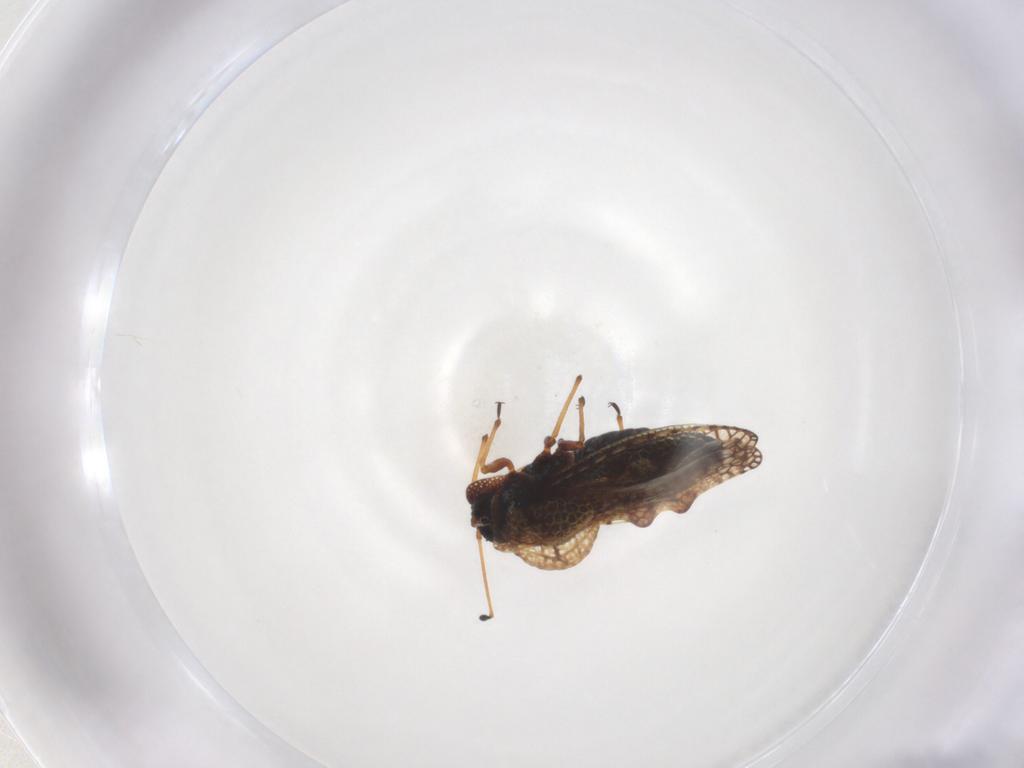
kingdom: Animalia
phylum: Arthropoda
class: Insecta
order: Hemiptera
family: Tingidae
